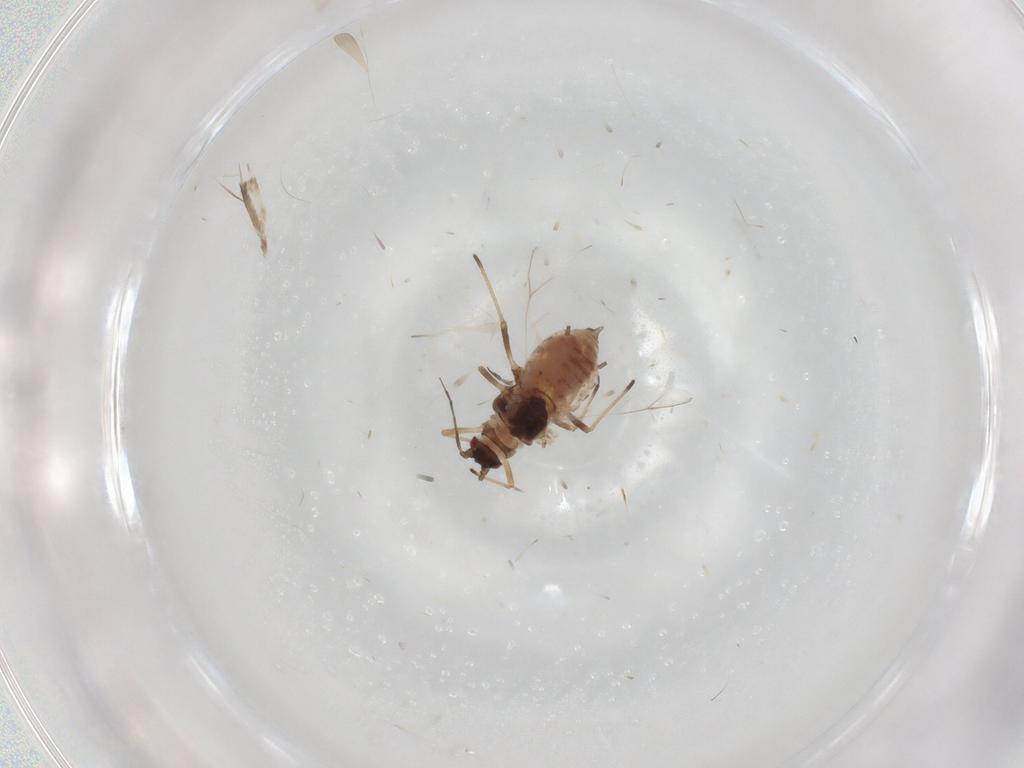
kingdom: Animalia
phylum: Arthropoda
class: Insecta
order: Hemiptera
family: Aphididae
